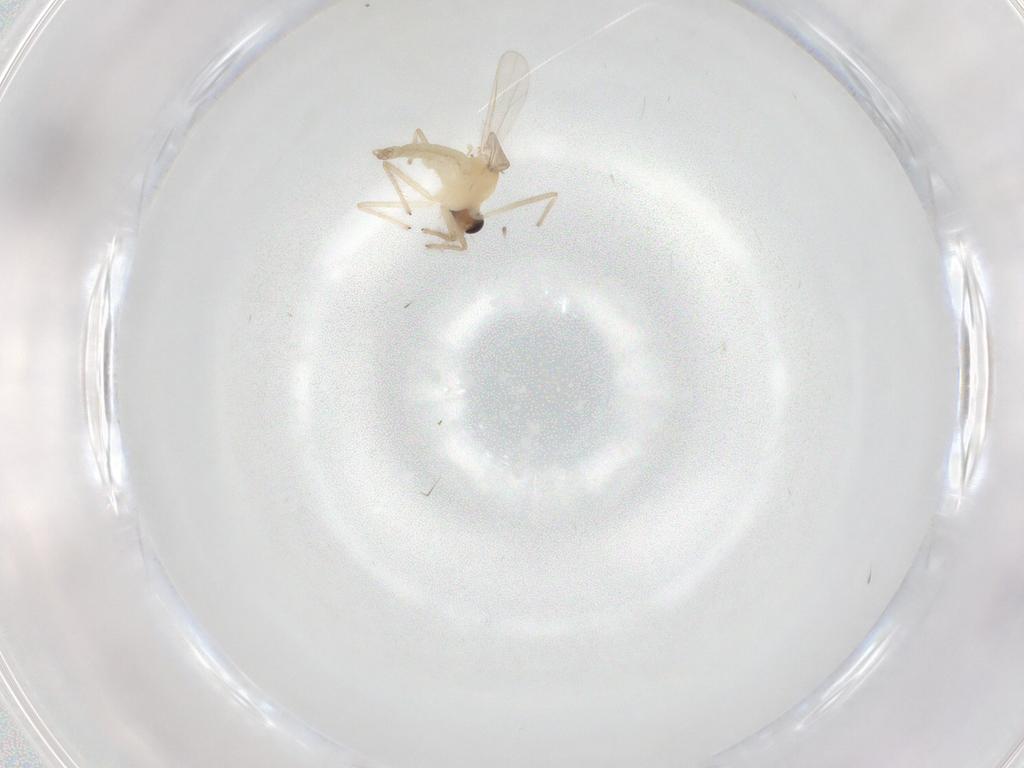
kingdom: Animalia
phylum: Arthropoda
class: Insecta
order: Diptera
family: Chironomidae
